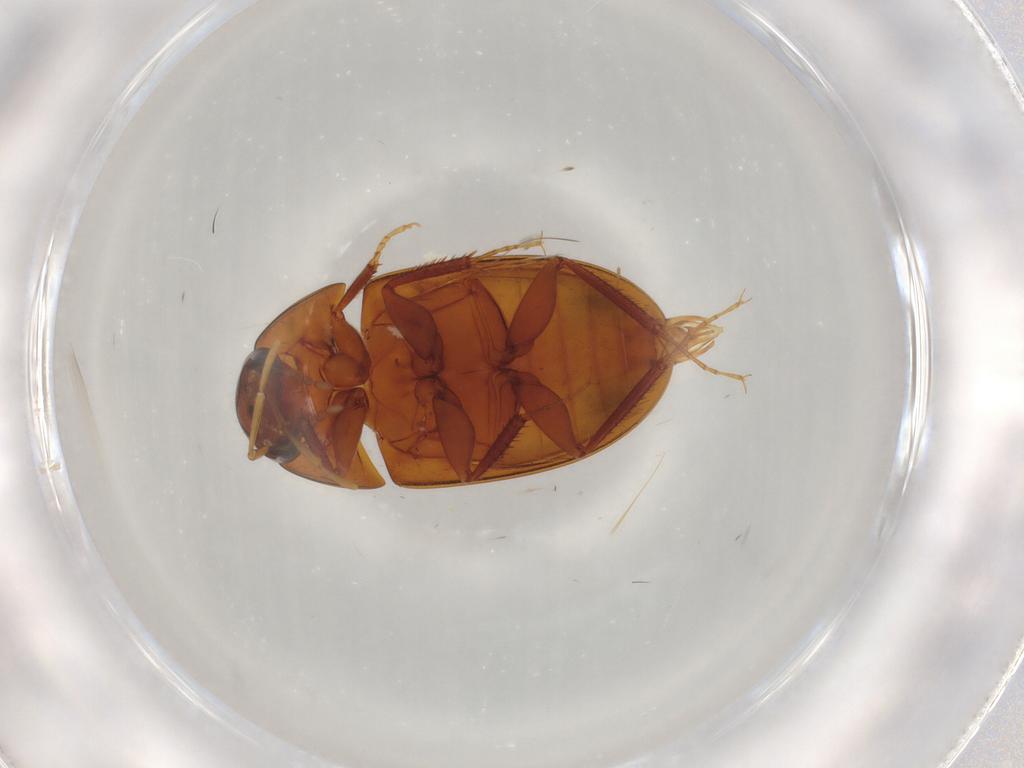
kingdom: Animalia
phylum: Arthropoda
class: Insecta
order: Coleoptera
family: Hydrophilidae
